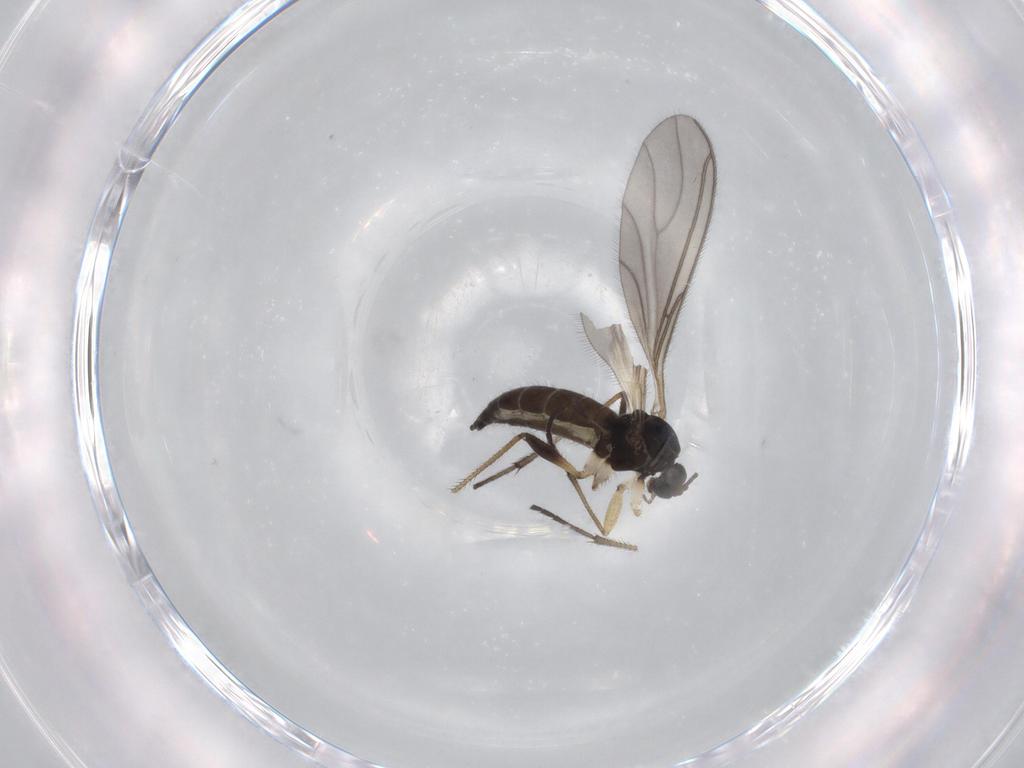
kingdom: Animalia
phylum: Arthropoda
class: Insecta
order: Diptera
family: Sciaridae
